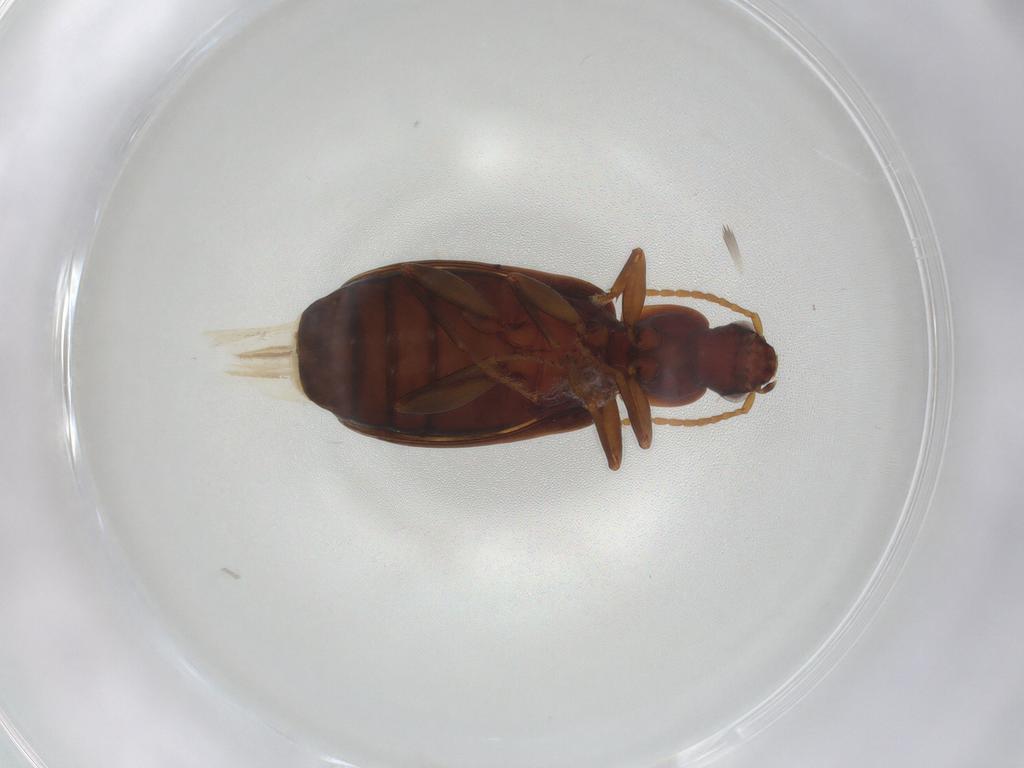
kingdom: Animalia
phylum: Arthropoda
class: Insecta
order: Coleoptera
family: Carabidae
